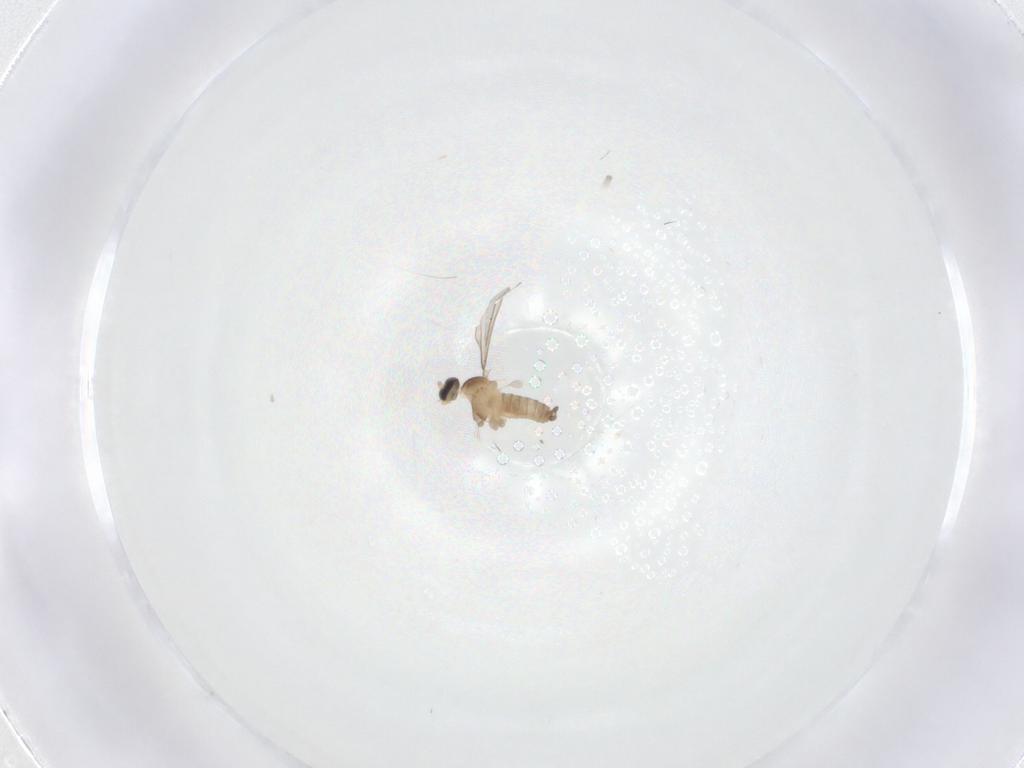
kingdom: Animalia
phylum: Arthropoda
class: Insecta
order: Diptera
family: Cecidomyiidae
